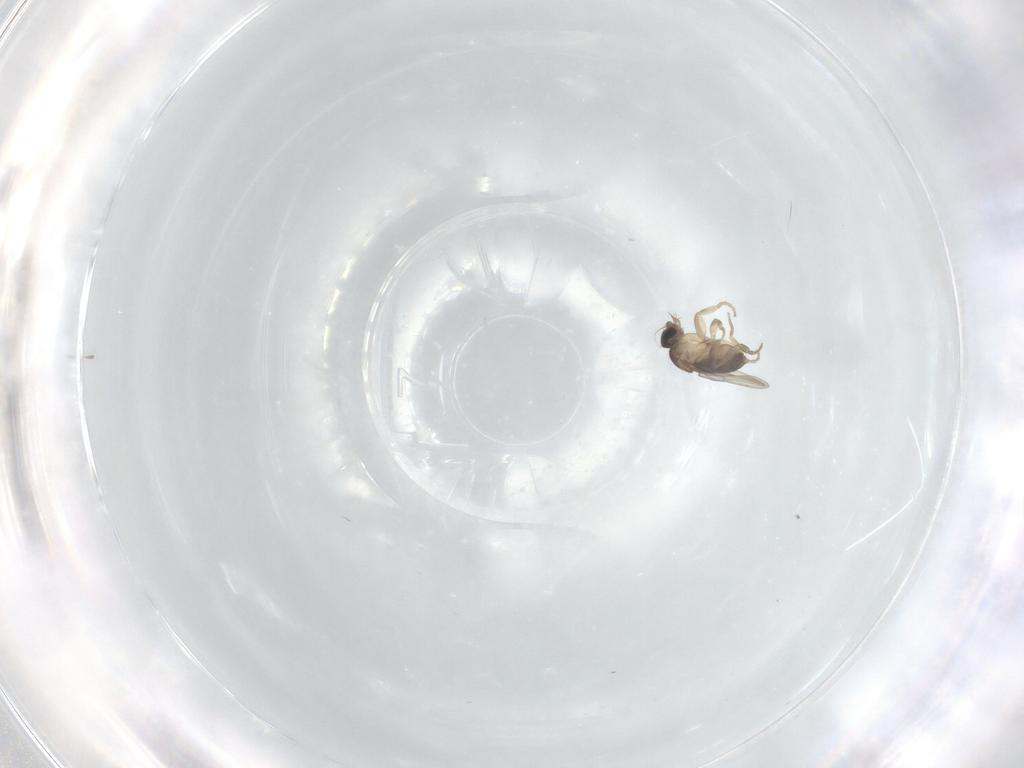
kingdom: Animalia
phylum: Arthropoda
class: Insecta
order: Diptera
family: Phoridae
